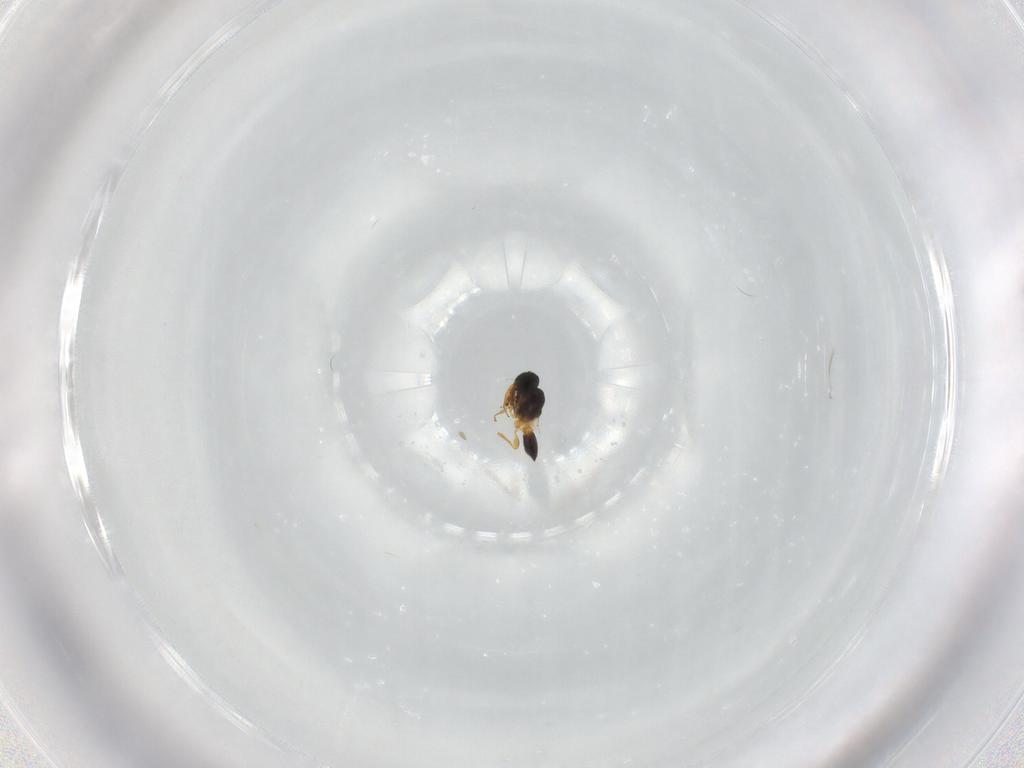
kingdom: Animalia
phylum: Arthropoda
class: Insecta
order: Hymenoptera
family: Platygastridae
